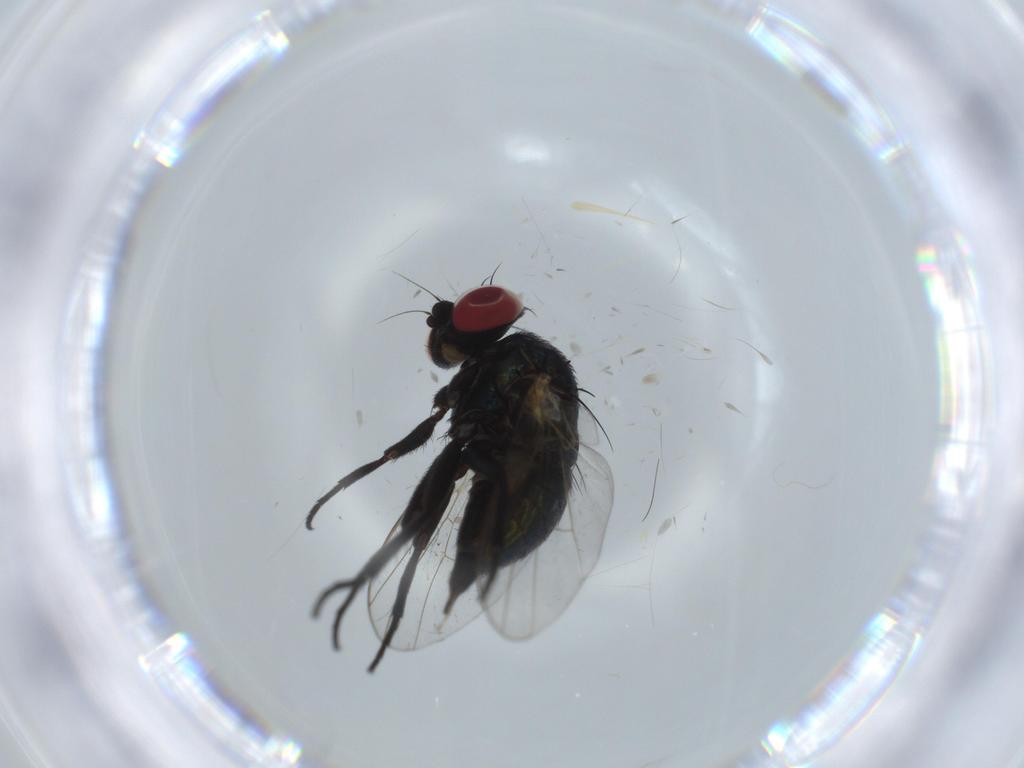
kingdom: Animalia
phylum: Arthropoda
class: Insecta
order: Diptera
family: Agromyzidae
